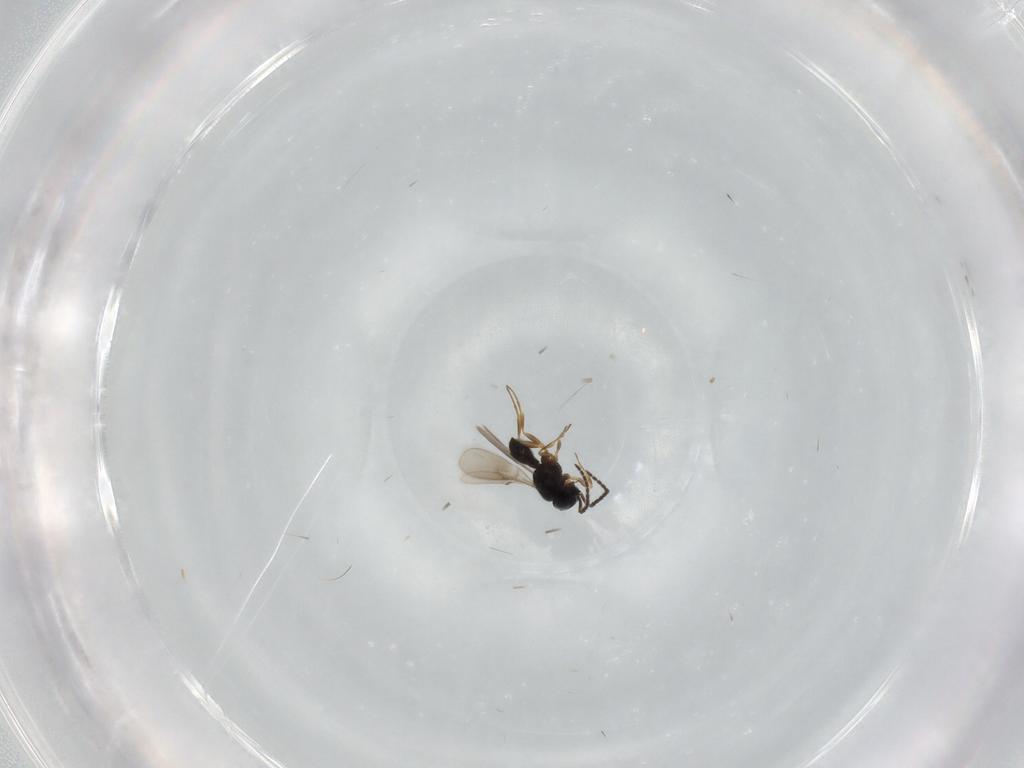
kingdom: Animalia
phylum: Arthropoda
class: Insecta
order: Hymenoptera
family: Scelionidae
